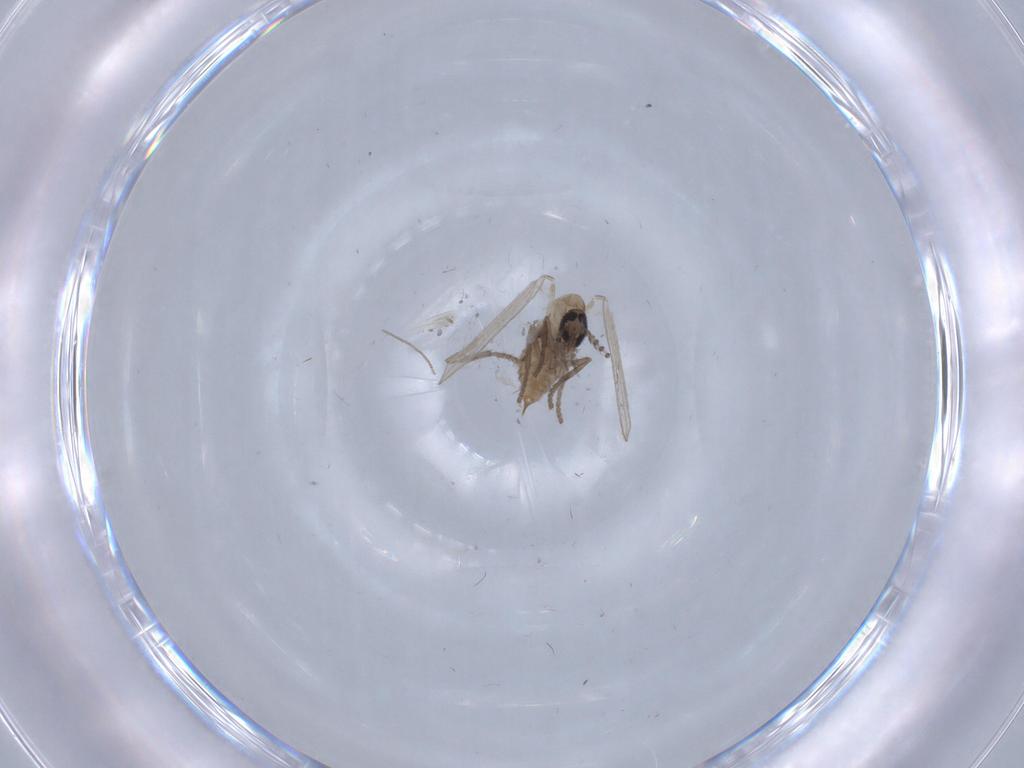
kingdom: Animalia
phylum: Arthropoda
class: Insecta
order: Diptera
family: Psychodidae
